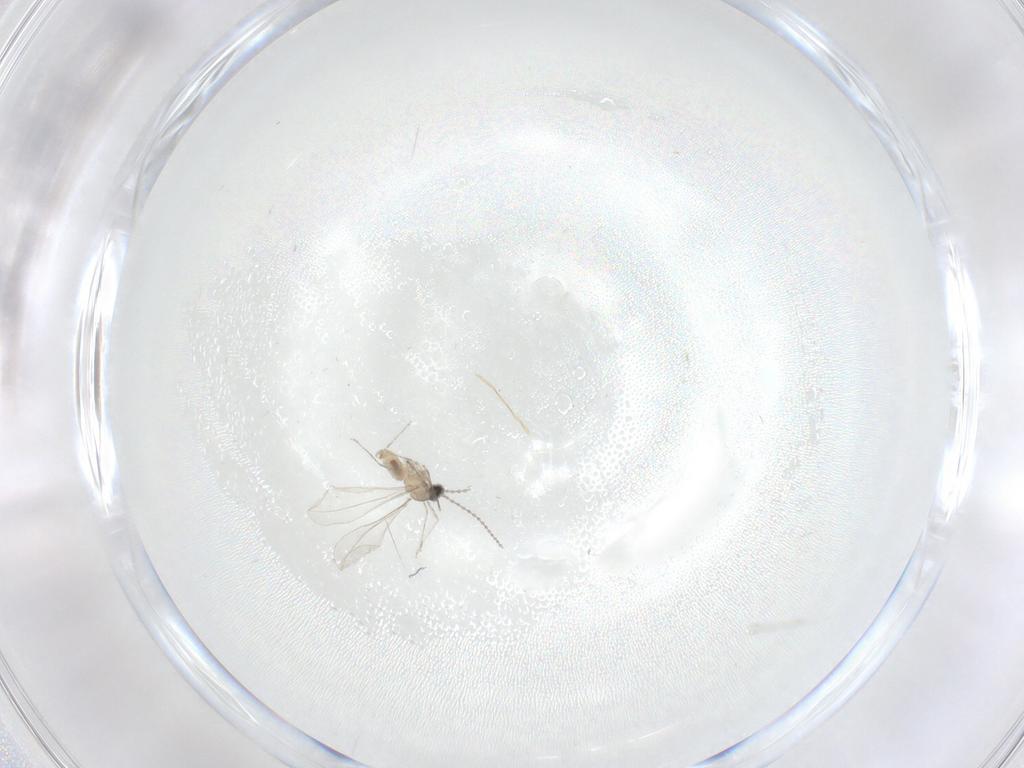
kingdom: Animalia
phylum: Arthropoda
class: Insecta
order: Diptera
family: Cecidomyiidae
